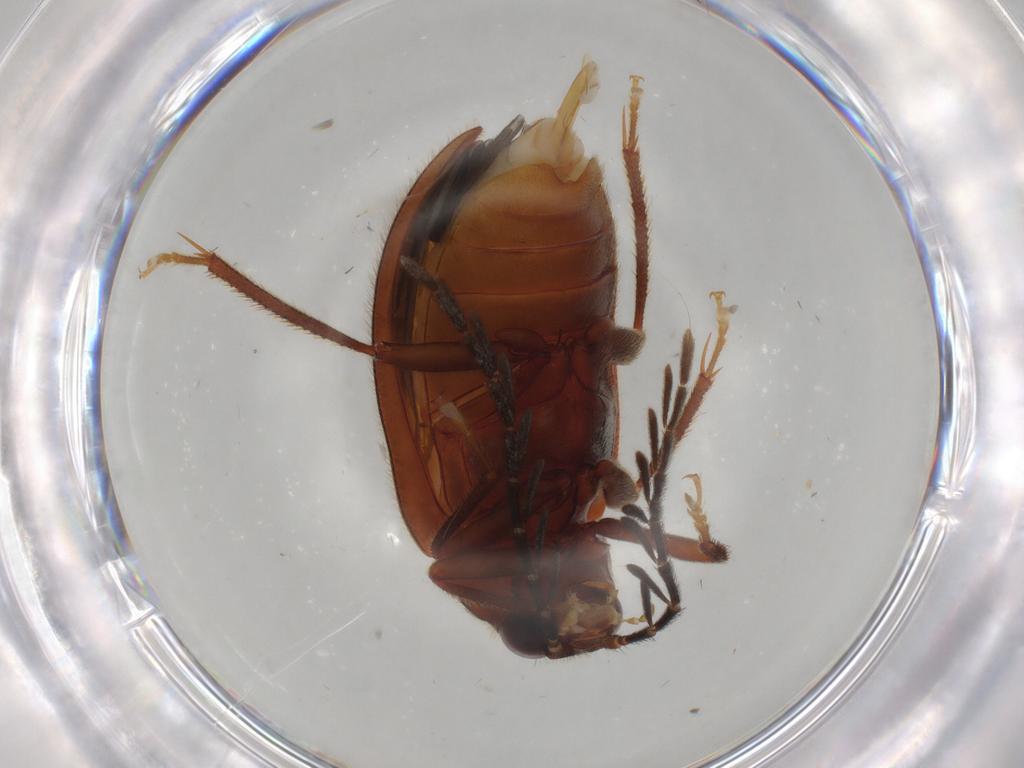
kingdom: Animalia
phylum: Arthropoda
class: Insecta
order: Coleoptera
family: Ptilodactylidae
